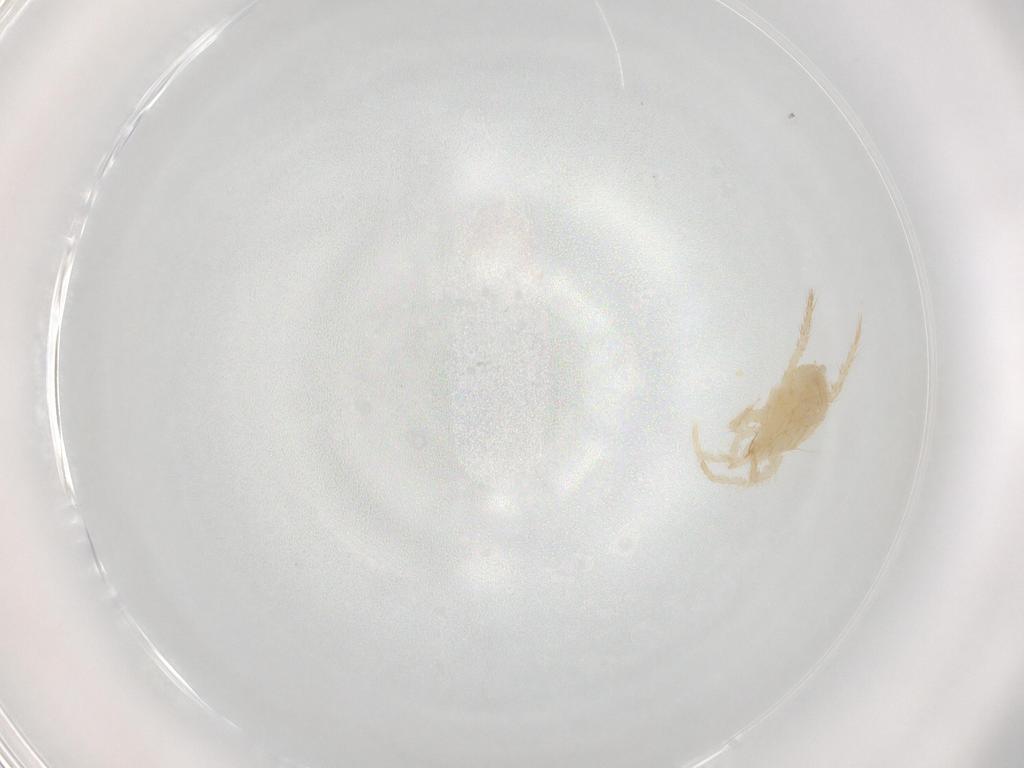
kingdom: Animalia
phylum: Arthropoda
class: Arachnida
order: Mesostigmata
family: Parasitidae
